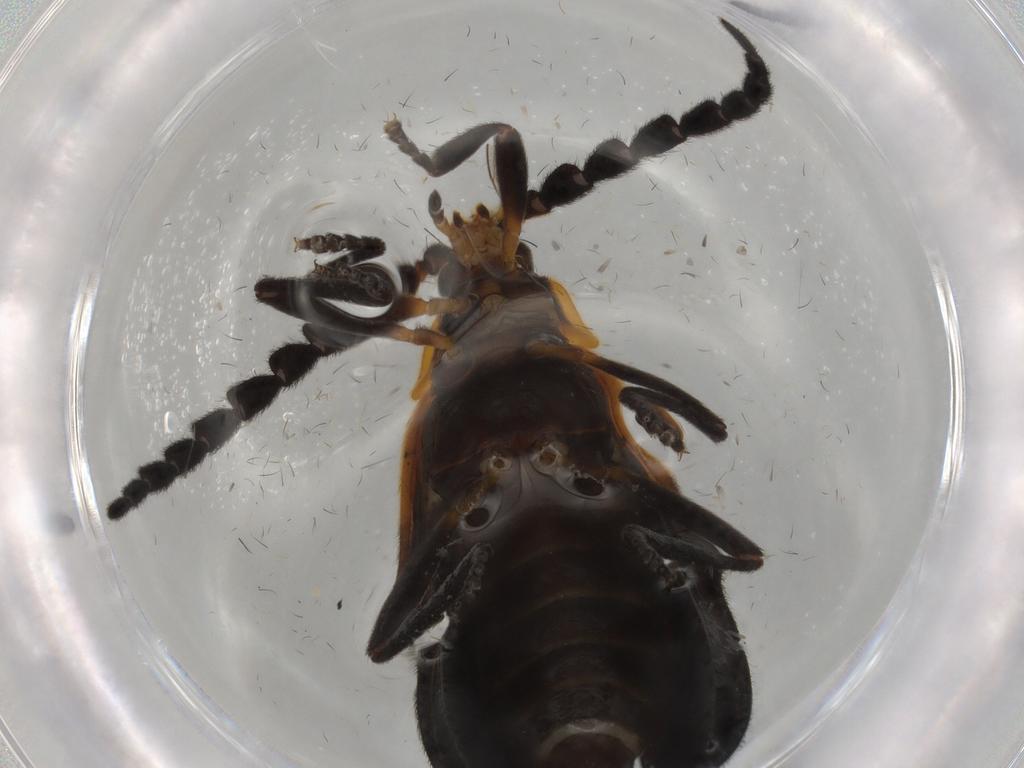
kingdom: Animalia
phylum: Arthropoda
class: Insecta
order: Coleoptera
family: Lycidae
